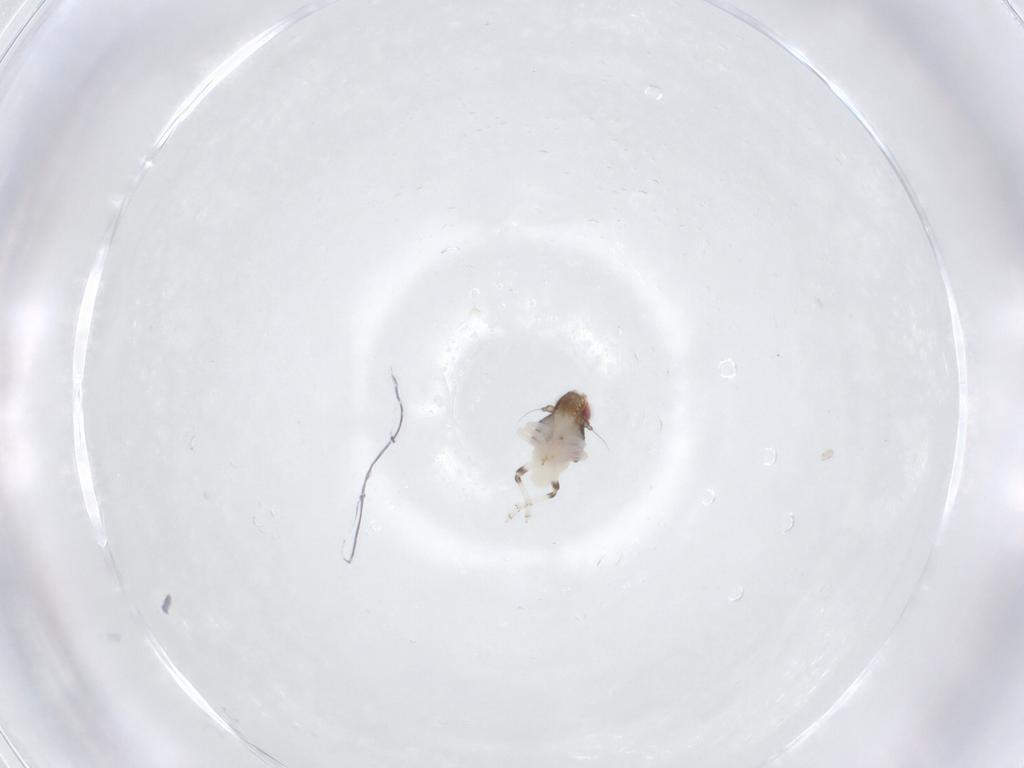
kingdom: Animalia
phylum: Arthropoda
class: Insecta
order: Hemiptera
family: Nogodinidae
